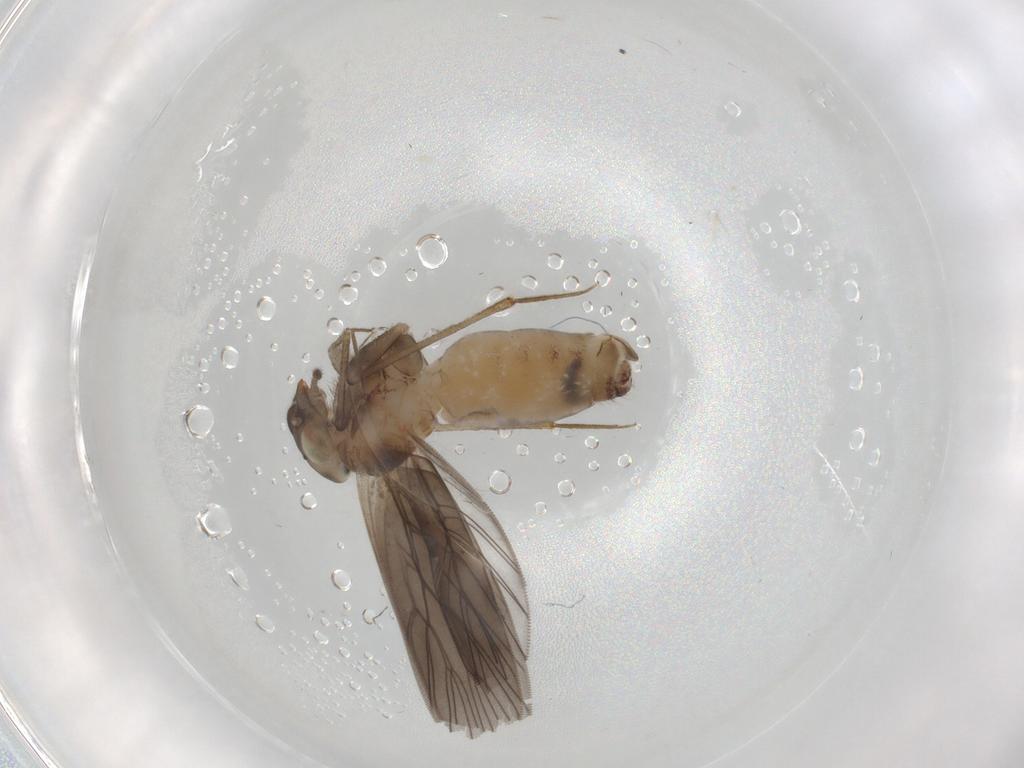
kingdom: Animalia
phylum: Arthropoda
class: Insecta
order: Psocodea
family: Lepidopsocidae
